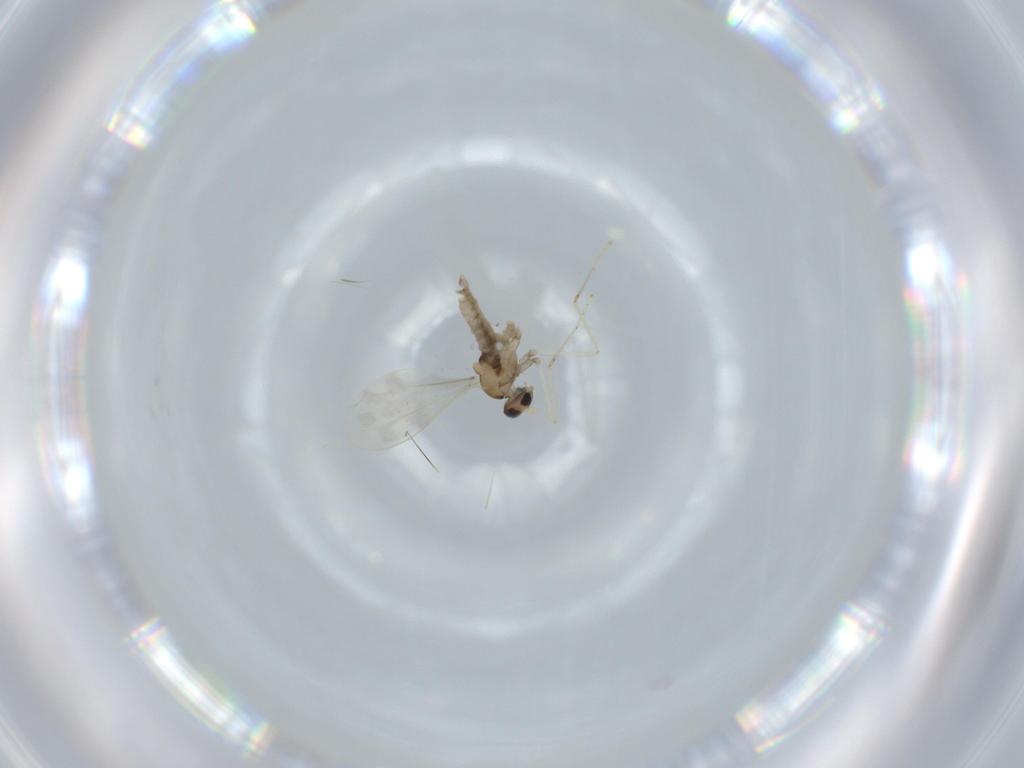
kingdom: Animalia
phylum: Arthropoda
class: Insecta
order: Diptera
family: Cecidomyiidae
